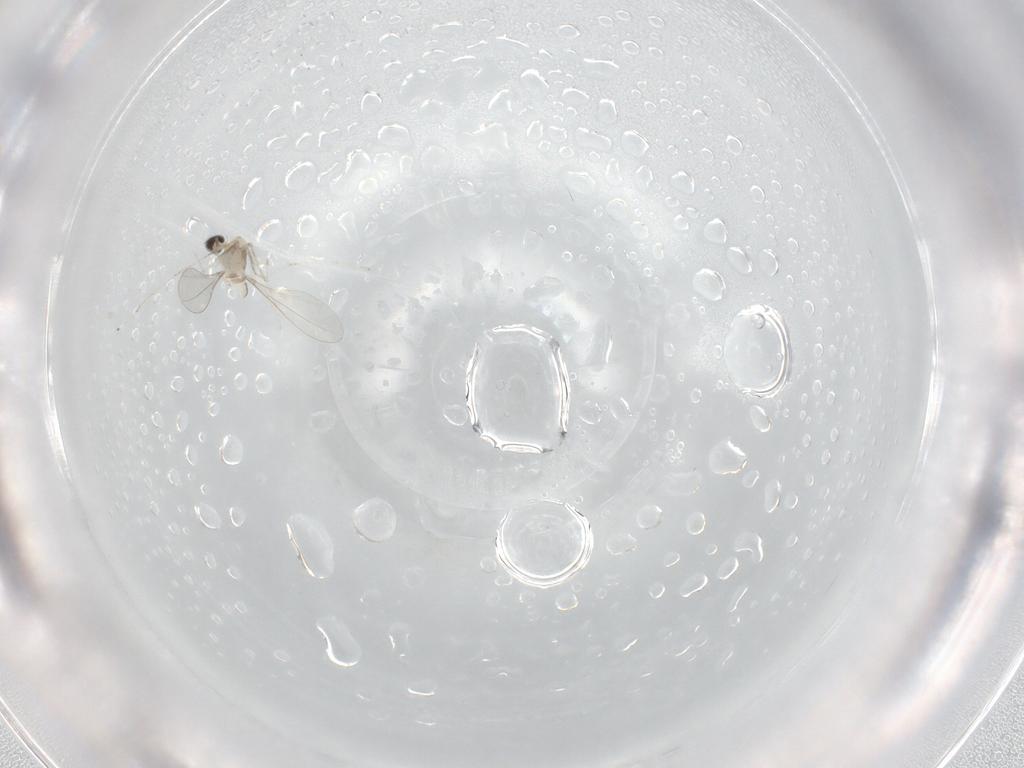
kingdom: Animalia
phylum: Arthropoda
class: Insecta
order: Diptera
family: Cecidomyiidae
